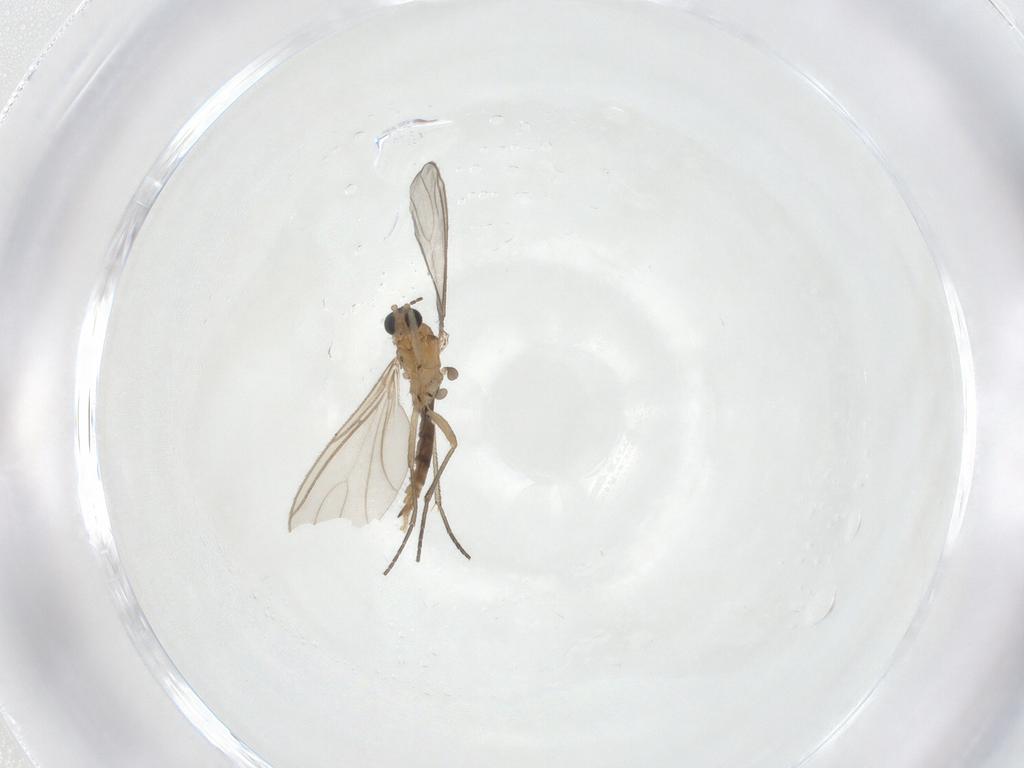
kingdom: Animalia
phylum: Arthropoda
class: Insecta
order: Diptera
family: Sciaridae
